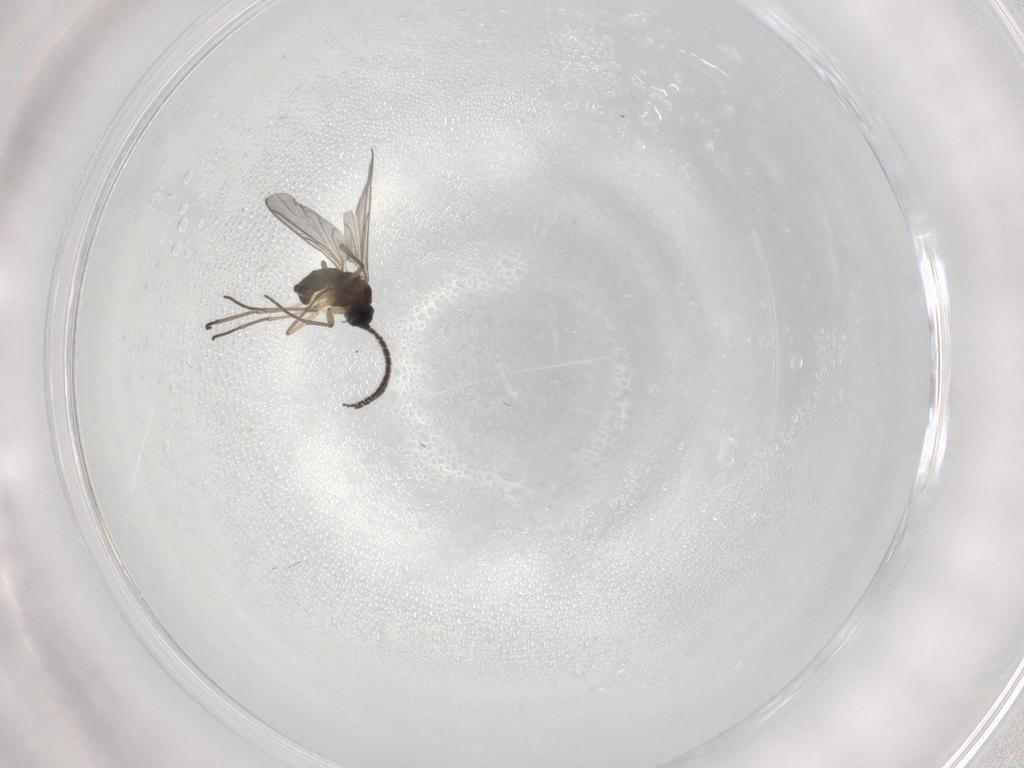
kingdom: Animalia
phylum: Arthropoda
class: Insecta
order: Diptera
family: Sciaridae
